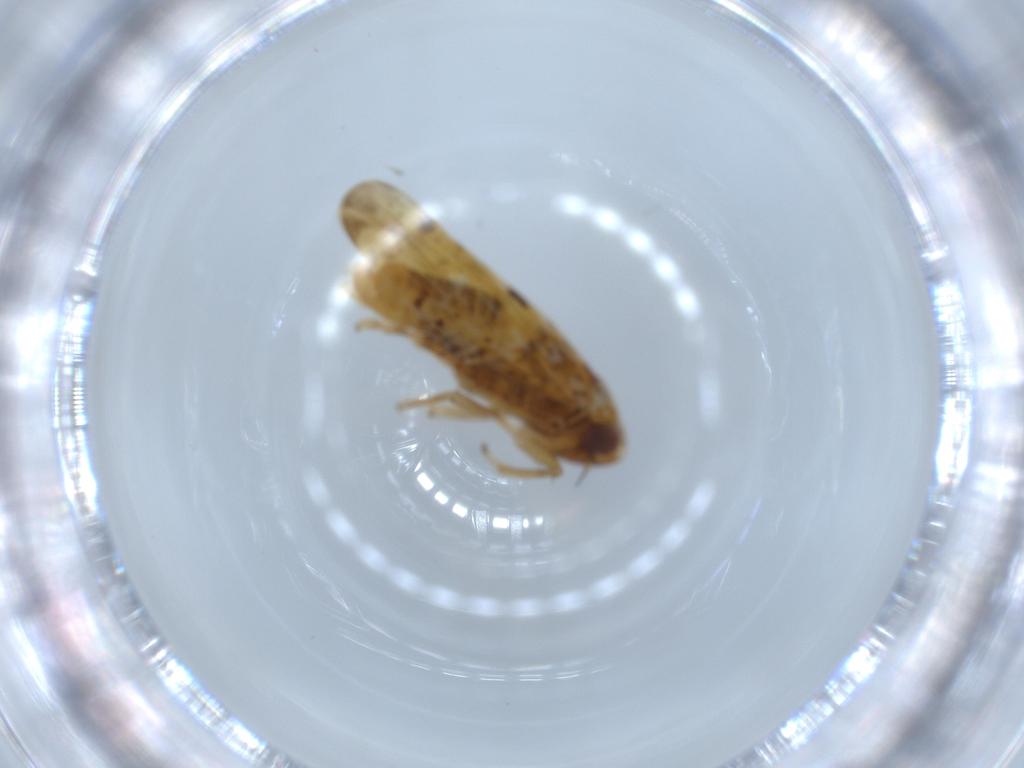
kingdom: Animalia
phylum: Arthropoda
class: Insecta
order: Hemiptera
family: Cicadellidae
